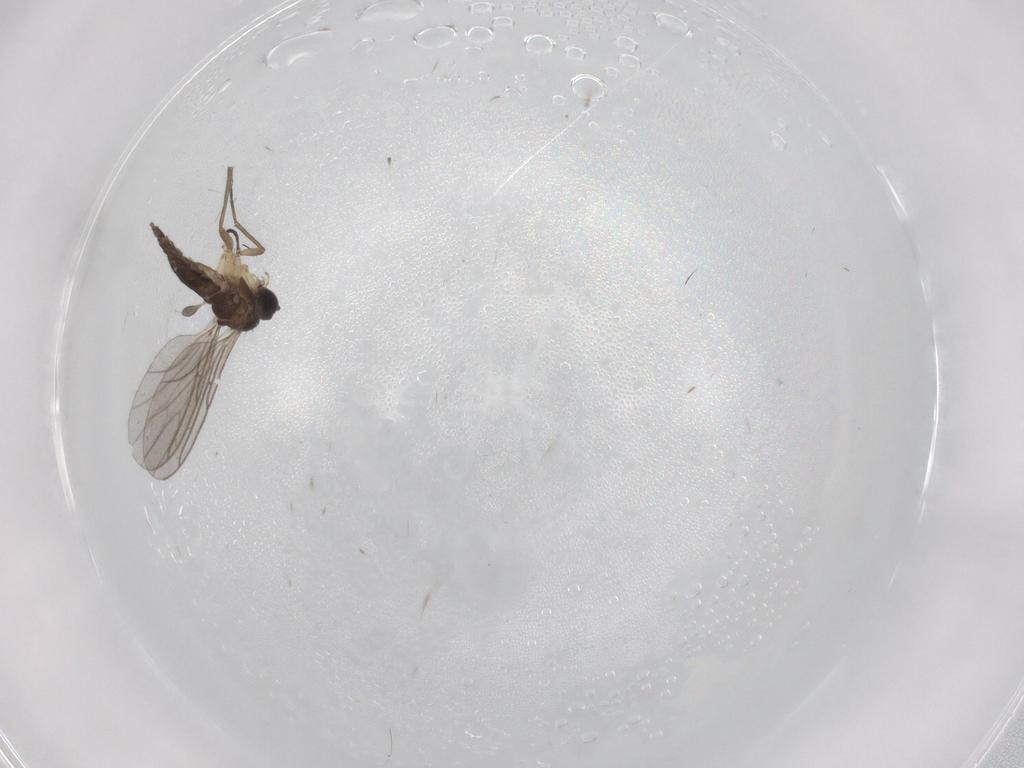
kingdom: Animalia
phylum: Arthropoda
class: Insecta
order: Diptera
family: Sciaridae
